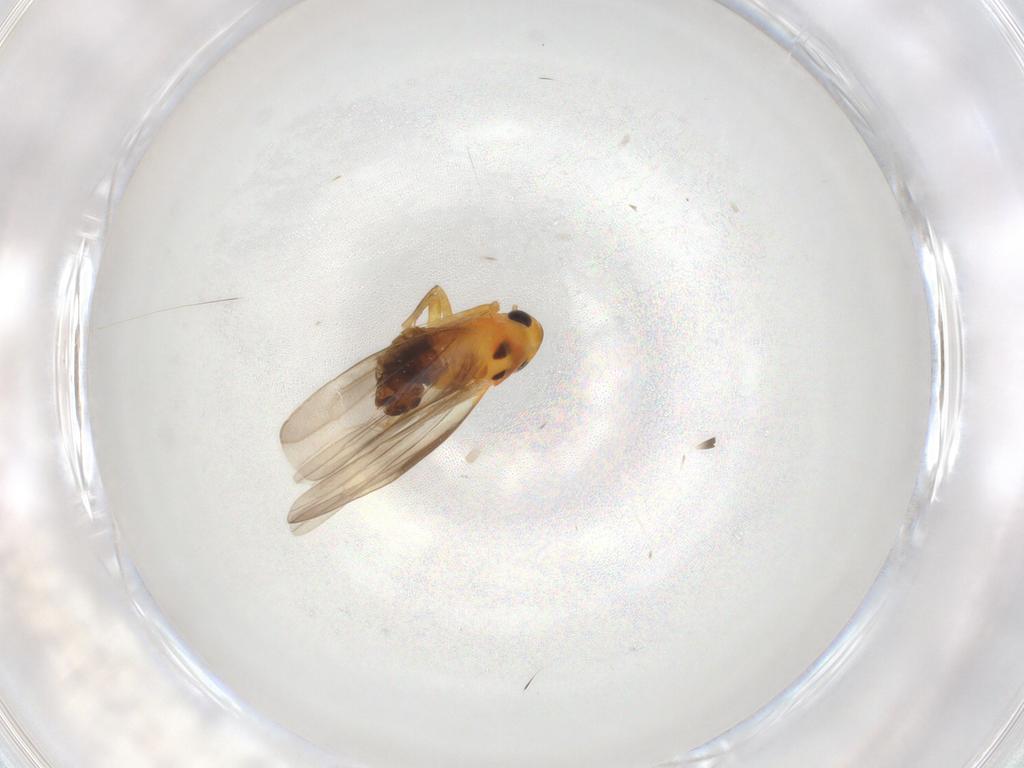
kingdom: Animalia
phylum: Arthropoda
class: Insecta
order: Hemiptera
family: Cicadellidae
